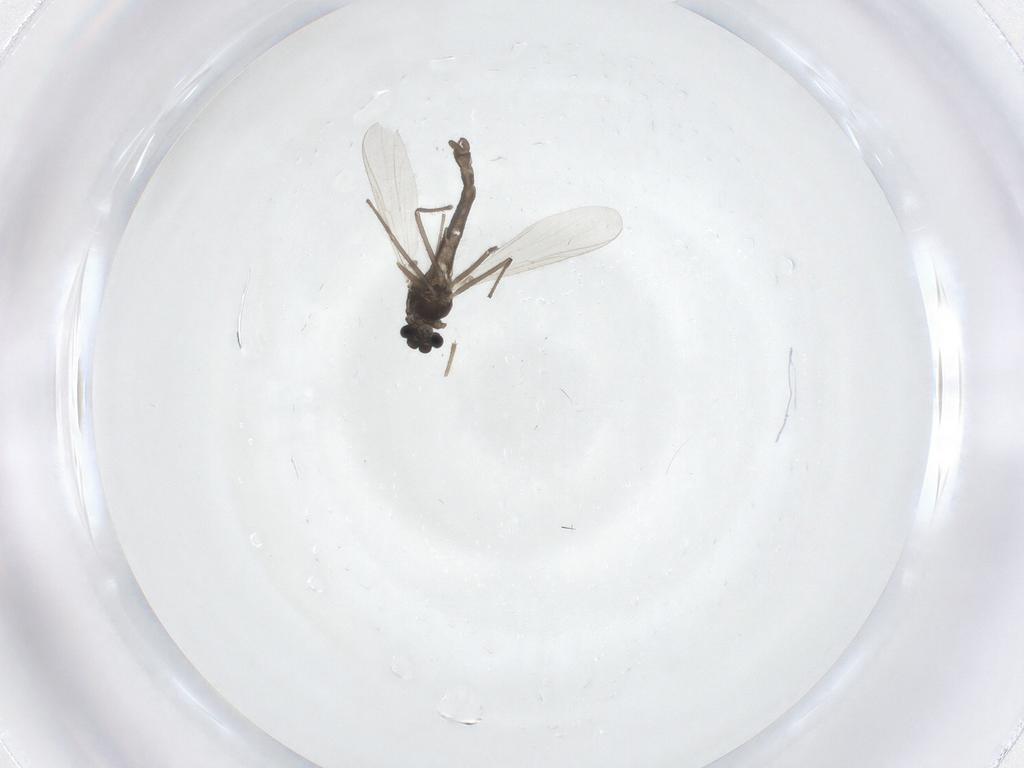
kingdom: Animalia
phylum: Arthropoda
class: Insecta
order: Diptera
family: Chironomidae
